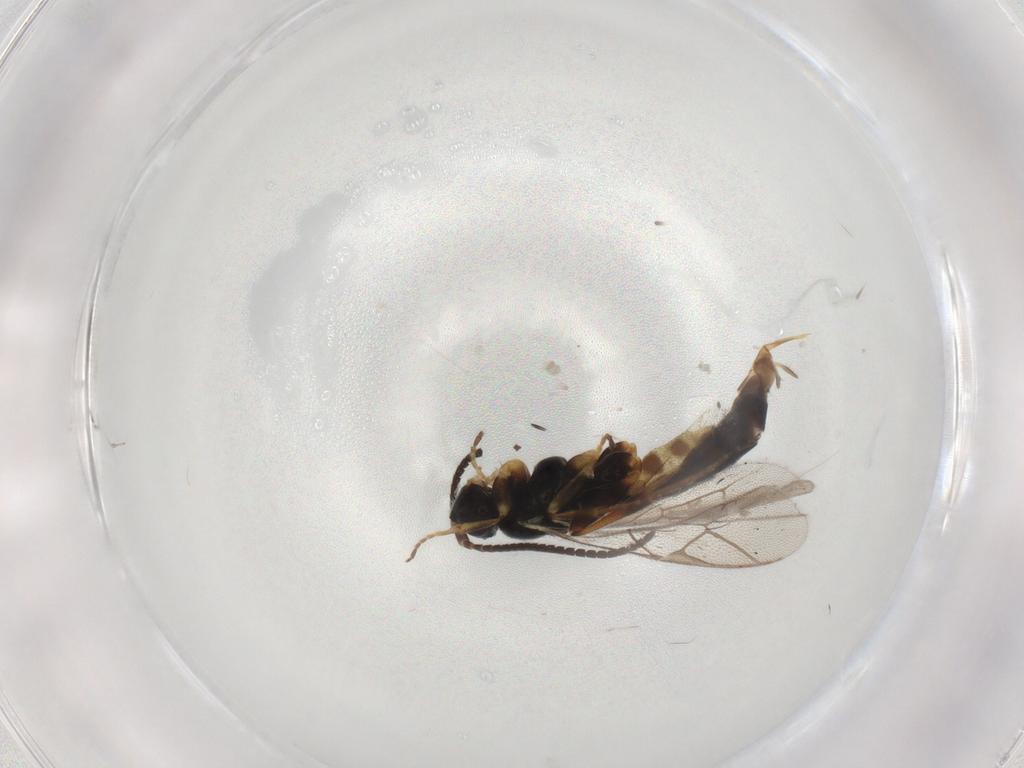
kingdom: Animalia
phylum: Arthropoda
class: Insecta
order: Hymenoptera
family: Ichneumonidae
